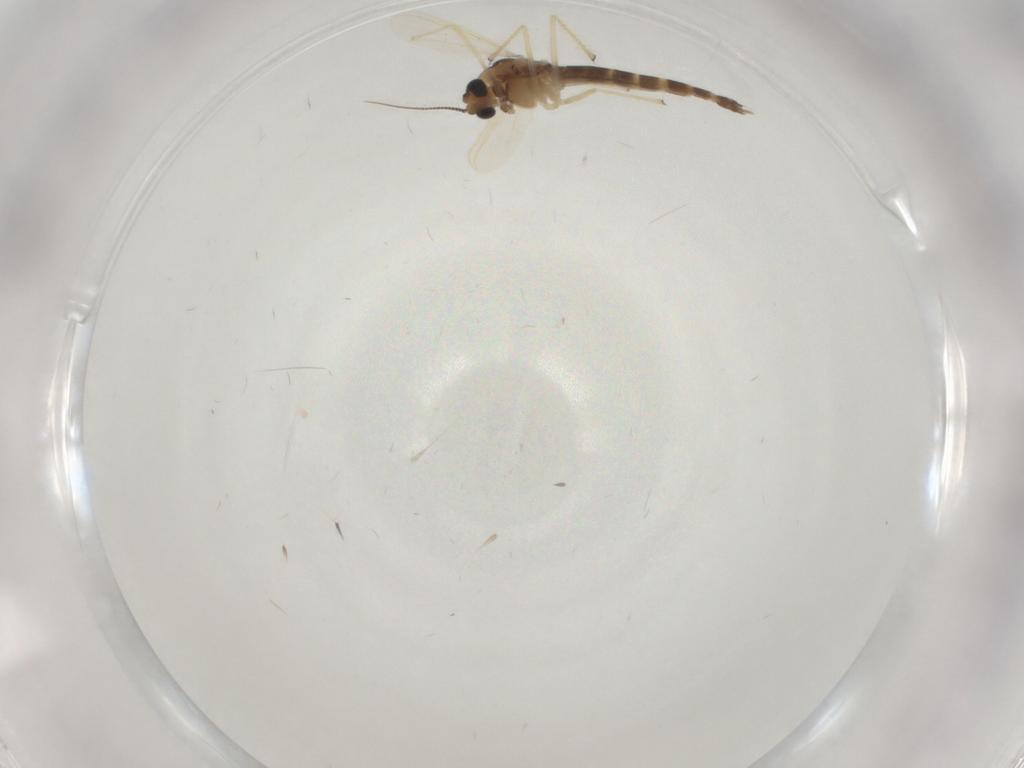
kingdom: Animalia
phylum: Arthropoda
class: Insecta
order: Diptera
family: Chironomidae
